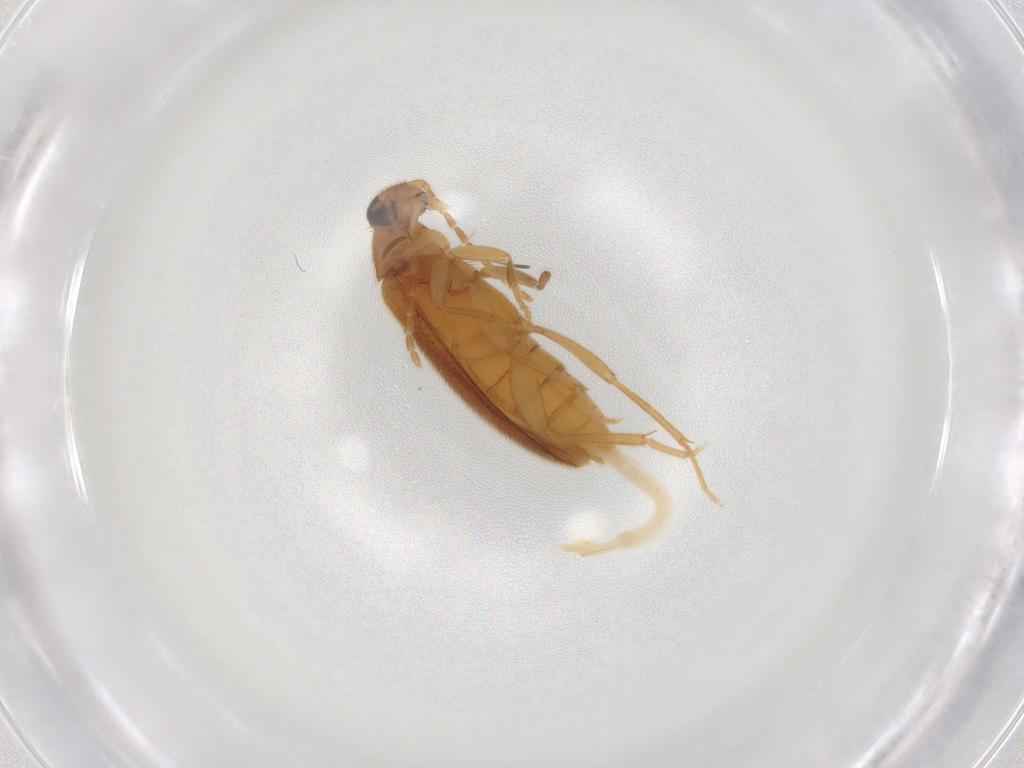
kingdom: Animalia
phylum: Arthropoda
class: Insecta
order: Coleoptera
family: Scraptiidae
